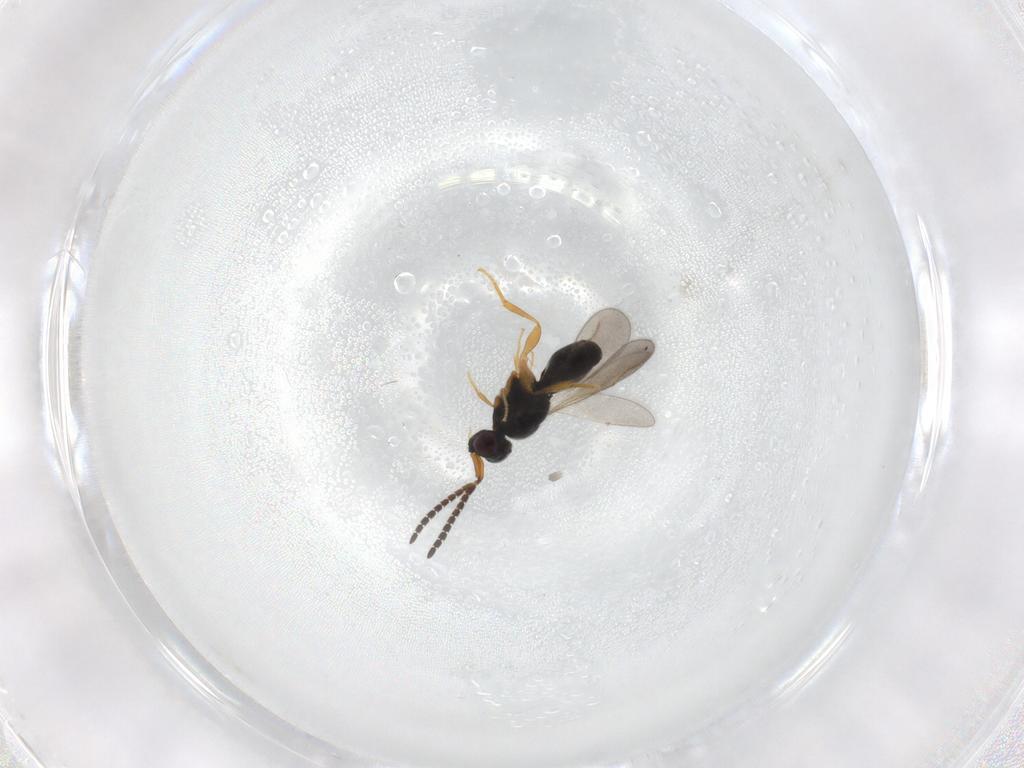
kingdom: Animalia
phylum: Arthropoda
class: Insecta
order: Hymenoptera
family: Ceraphronidae
